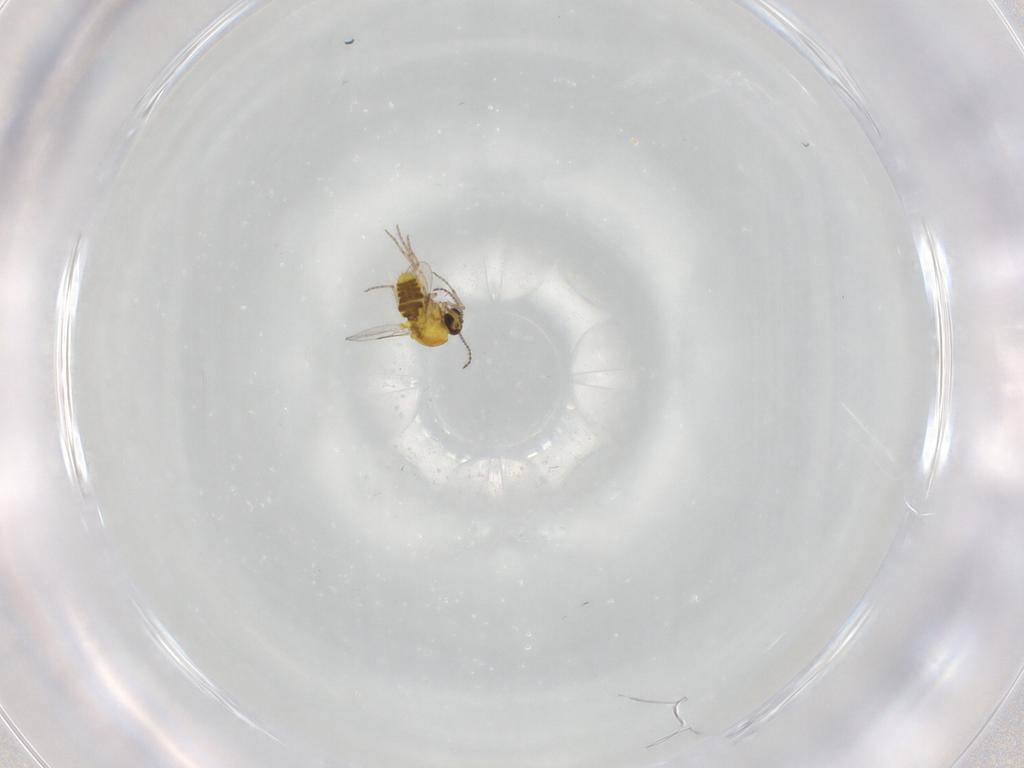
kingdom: Animalia
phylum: Arthropoda
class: Insecta
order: Diptera
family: Ceratopogonidae
